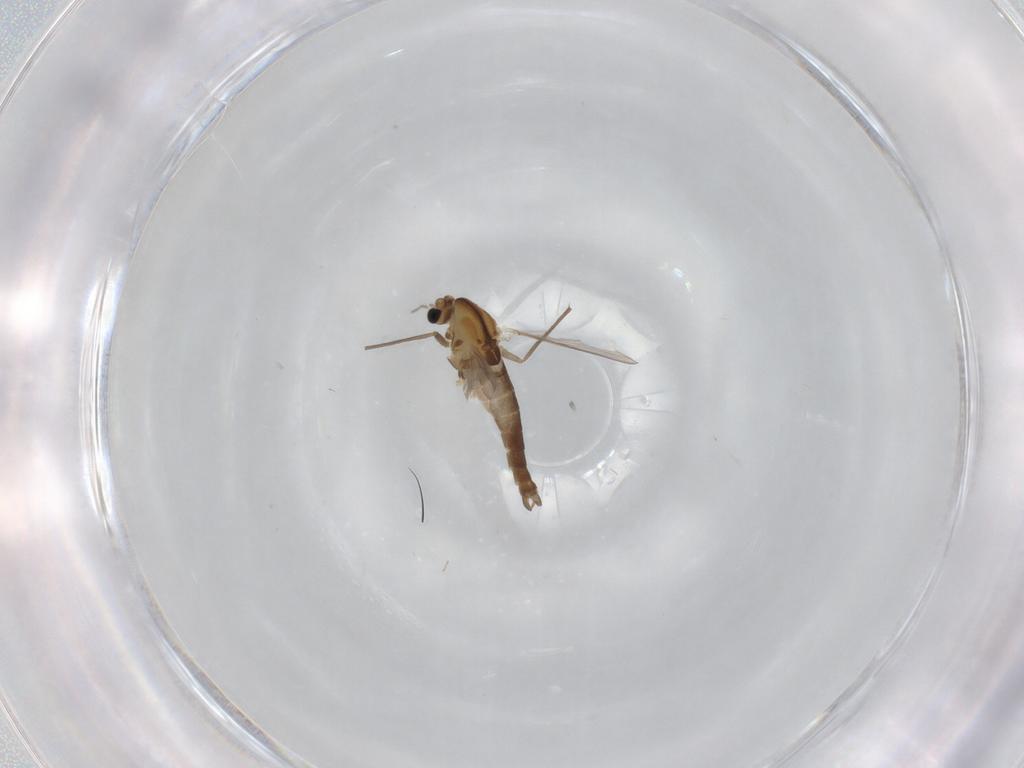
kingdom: Animalia
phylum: Arthropoda
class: Insecta
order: Diptera
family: Chironomidae
